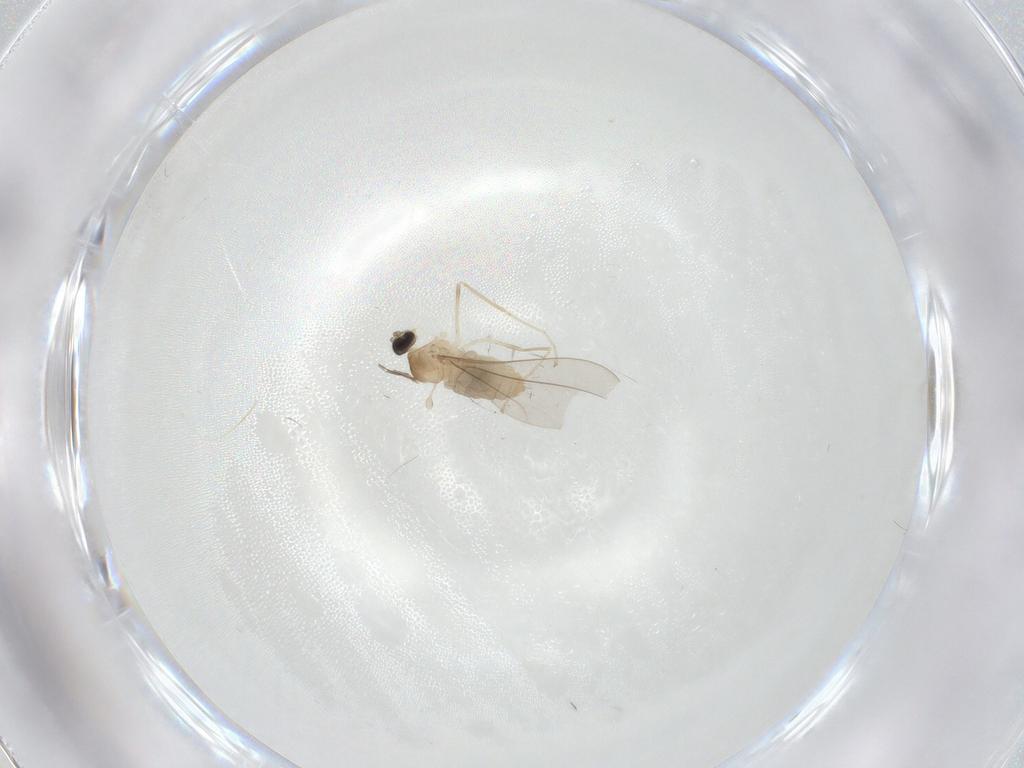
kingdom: Animalia
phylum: Arthropoda
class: Insecta
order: Diptera
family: Cecidomyiidae
